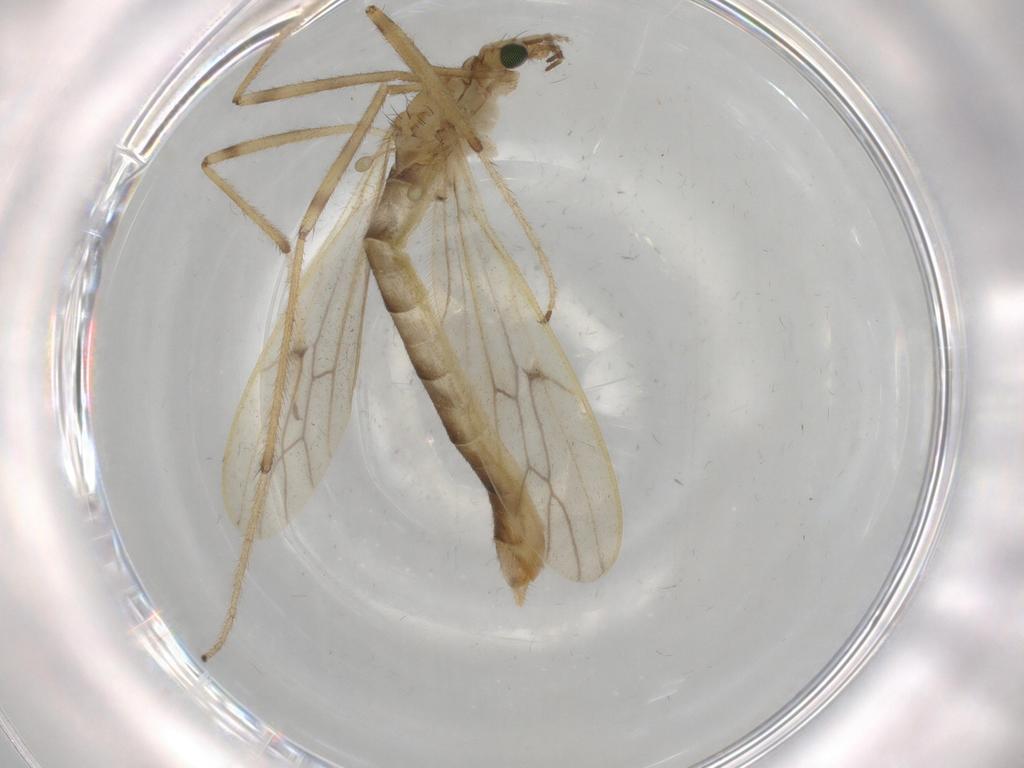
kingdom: Animalia
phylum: Arthropoda
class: Insecta
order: Diptera
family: Limoniidae
